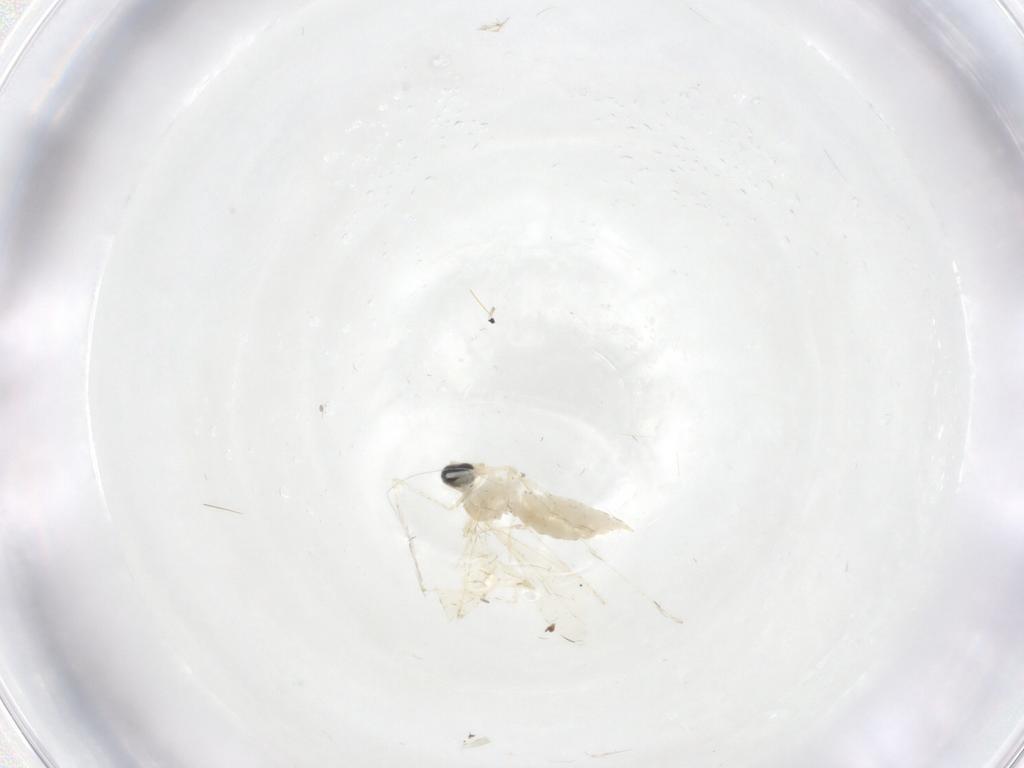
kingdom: Animalia
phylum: Arthropoda
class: Insecta
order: Diptera
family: Cecidomyiidae
